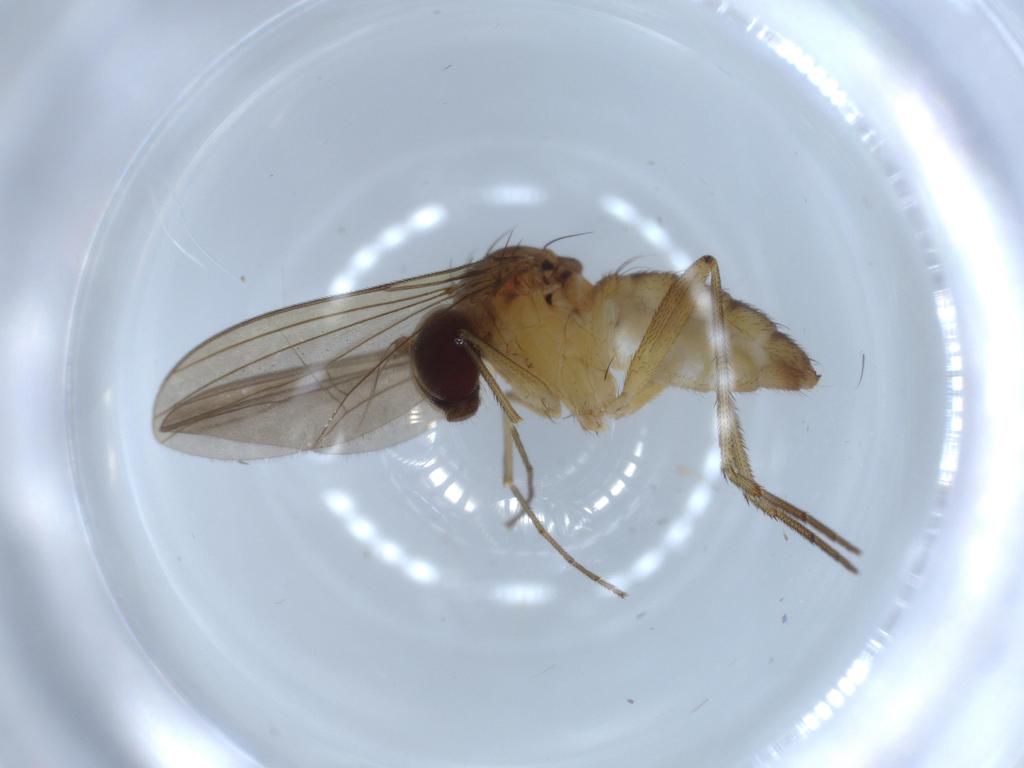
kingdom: Animalia
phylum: Arthropoda
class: Insecta
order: Diptera
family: Dolichopodidae
